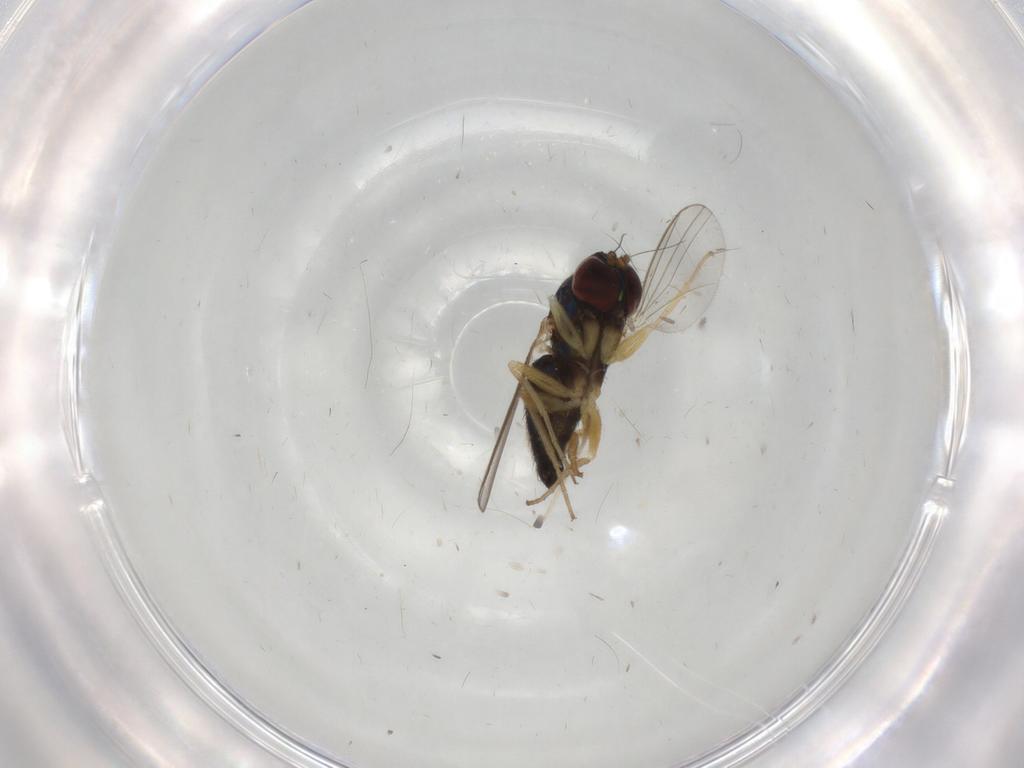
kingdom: Animalia
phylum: Arthropoda
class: Insecta
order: Diptera
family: Dolichopodidae
